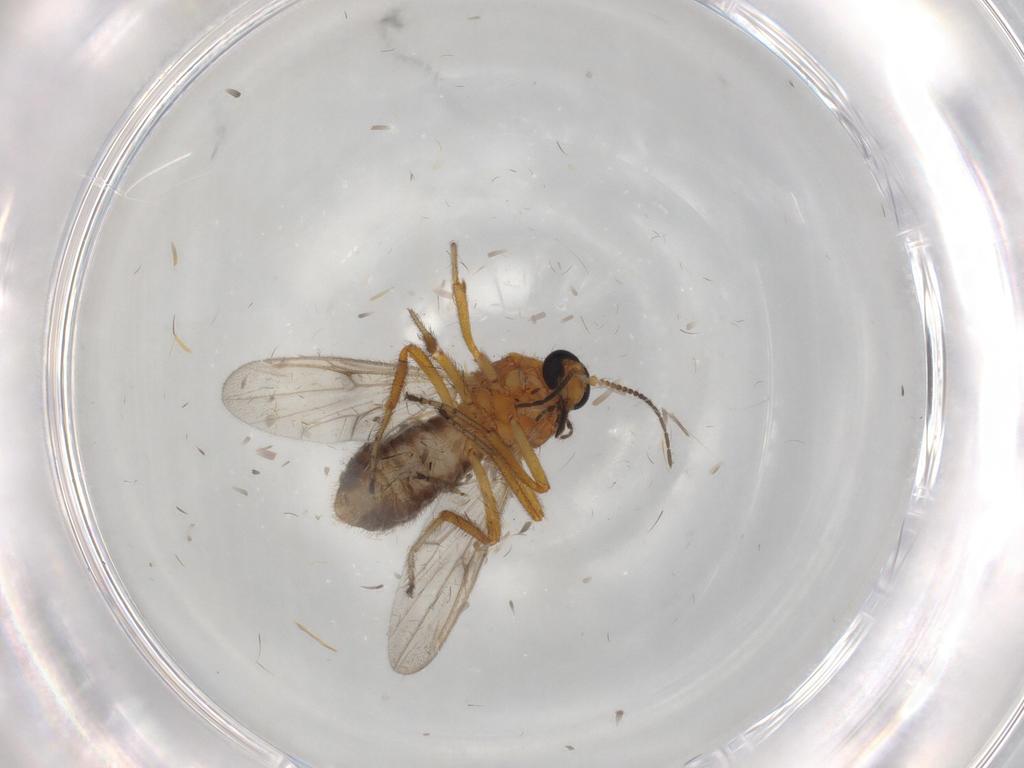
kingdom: Animalia
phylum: Arthropoda
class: Insecta
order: Diptera
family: Ceratopogonidae
